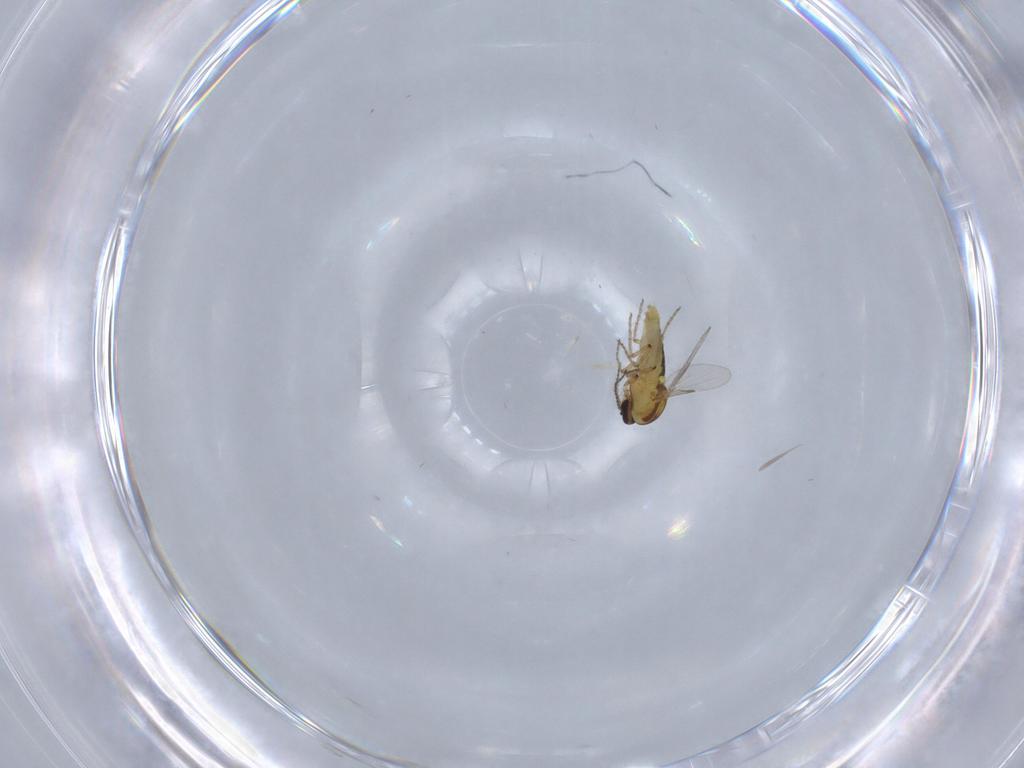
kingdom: Animalia
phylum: Arthropoda
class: Insecta
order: Diptera
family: Ceratopogonidae
